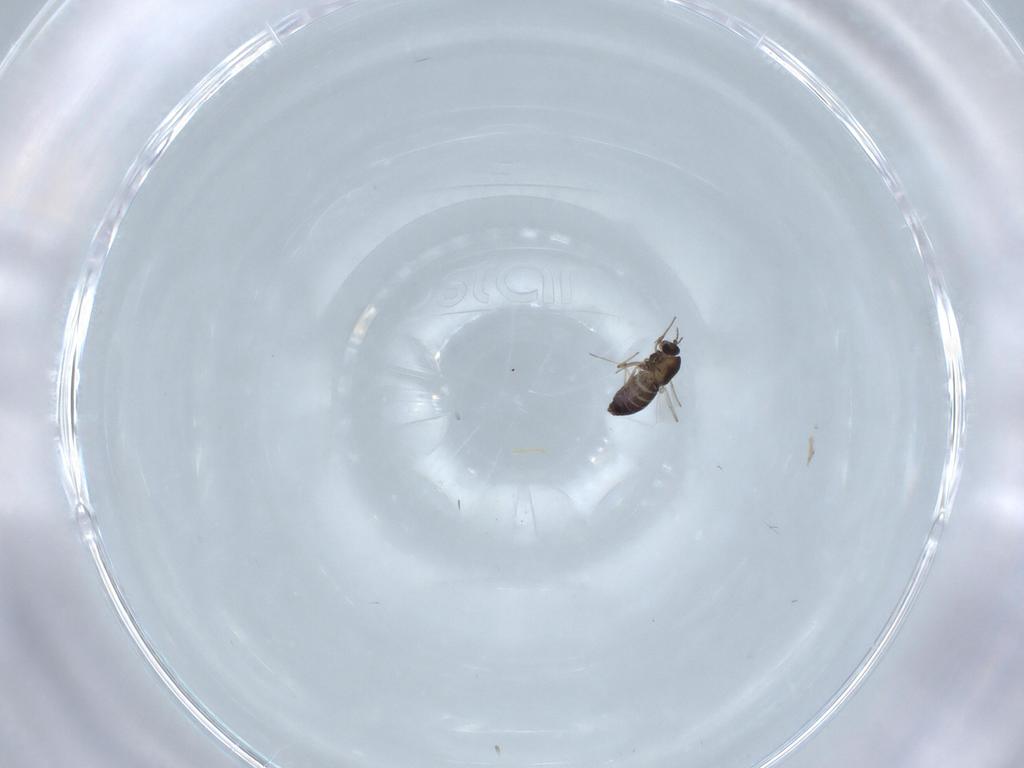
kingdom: Animalia
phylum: Arthropoda
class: Insecta
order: Diptera
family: Chironomidae
